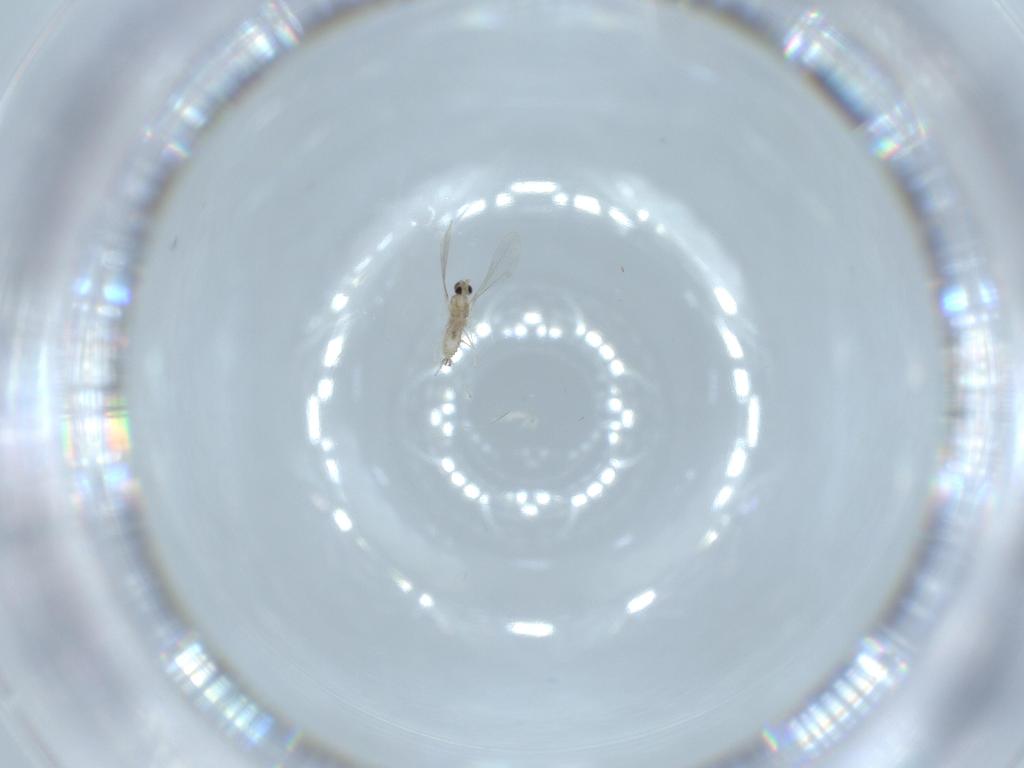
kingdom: Animalia
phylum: Arthropoda
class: Insecta
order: Diptera
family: Cecidomyiidae
